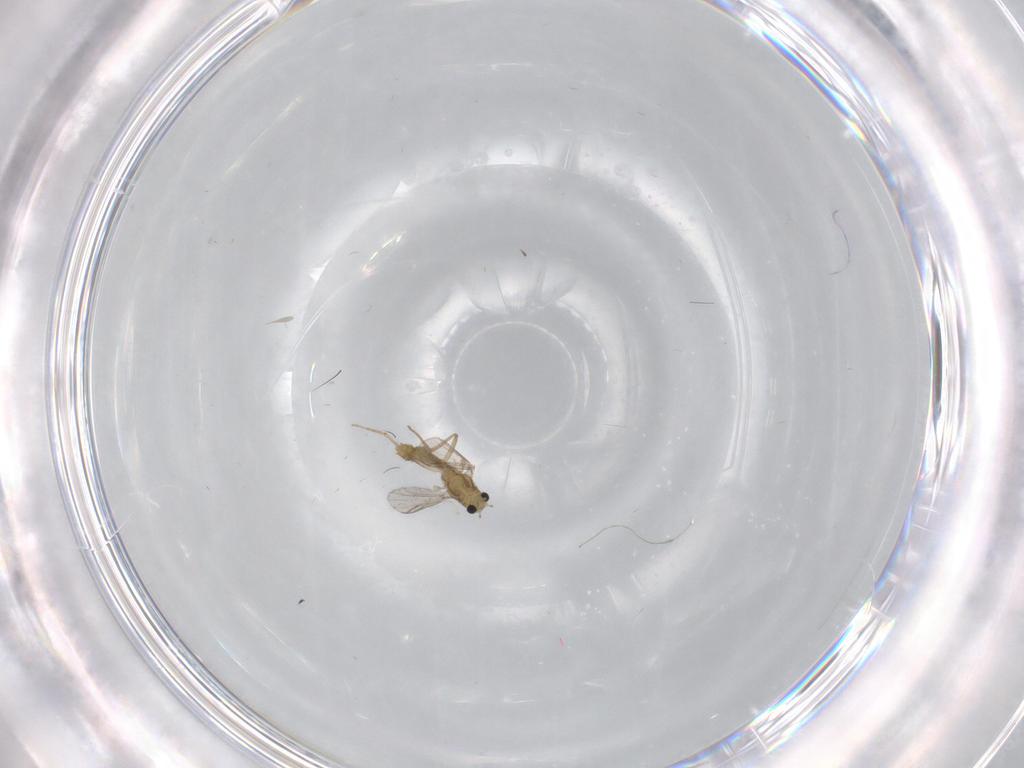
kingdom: Animalia
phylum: Arthropoda
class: Insecta
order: Diptera
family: Chironomidae
